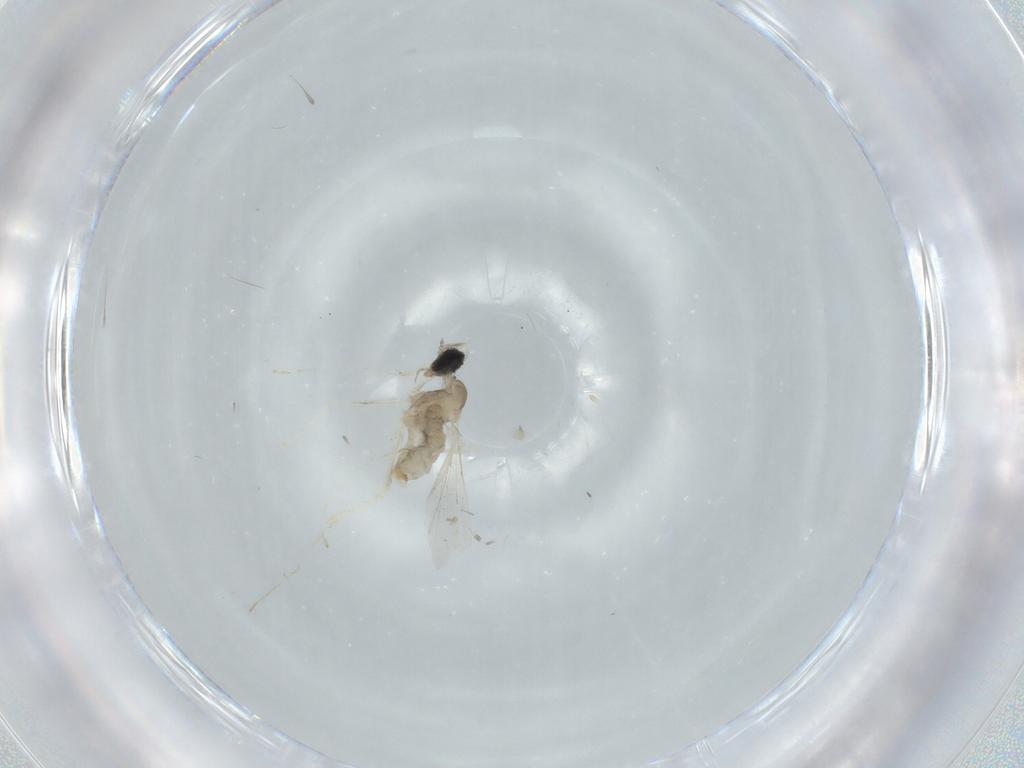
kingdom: Animalia
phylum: Arthropoda
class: Insecta
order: Diptera
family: Cecidomyiidae
